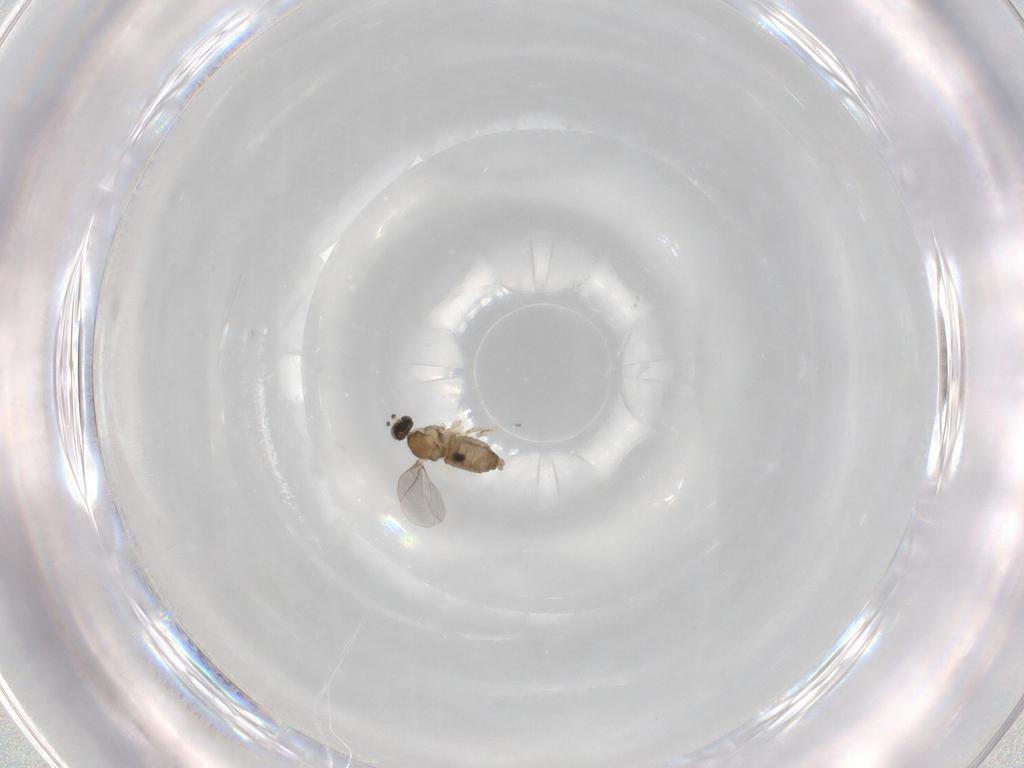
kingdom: Animalia
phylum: Arthropoda
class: Insecta
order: Diptera
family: Cecidomyiidae
